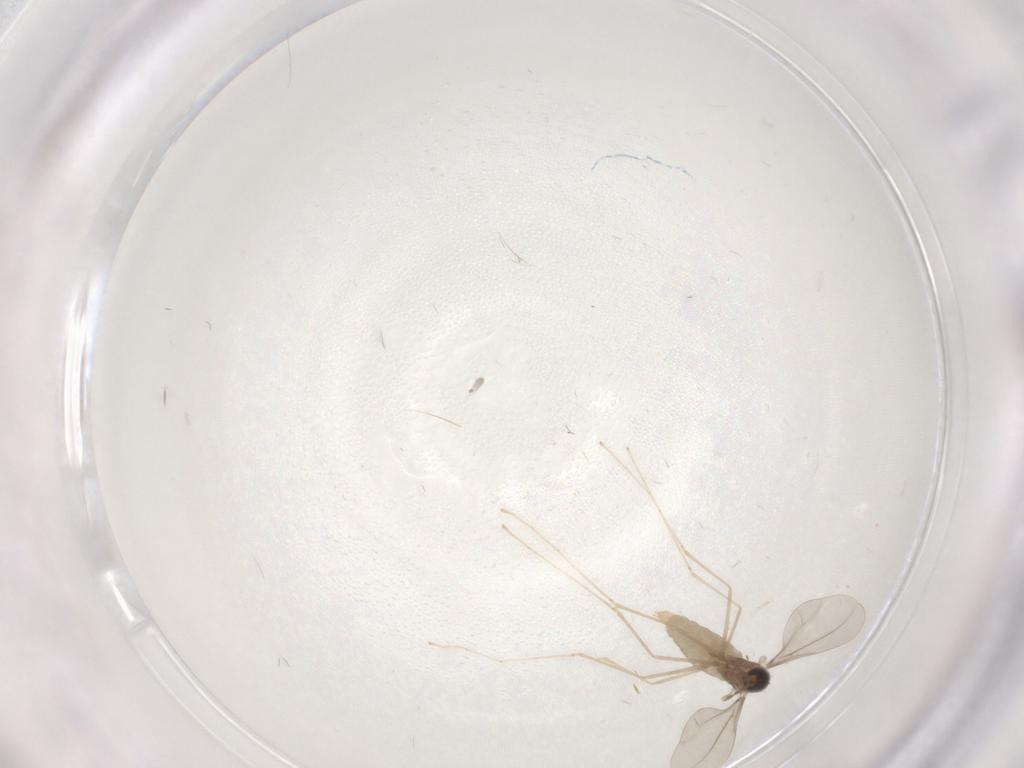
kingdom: Animalia
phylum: Arthropoda
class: Insecta
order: Diptera
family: Cecidomyiidae
